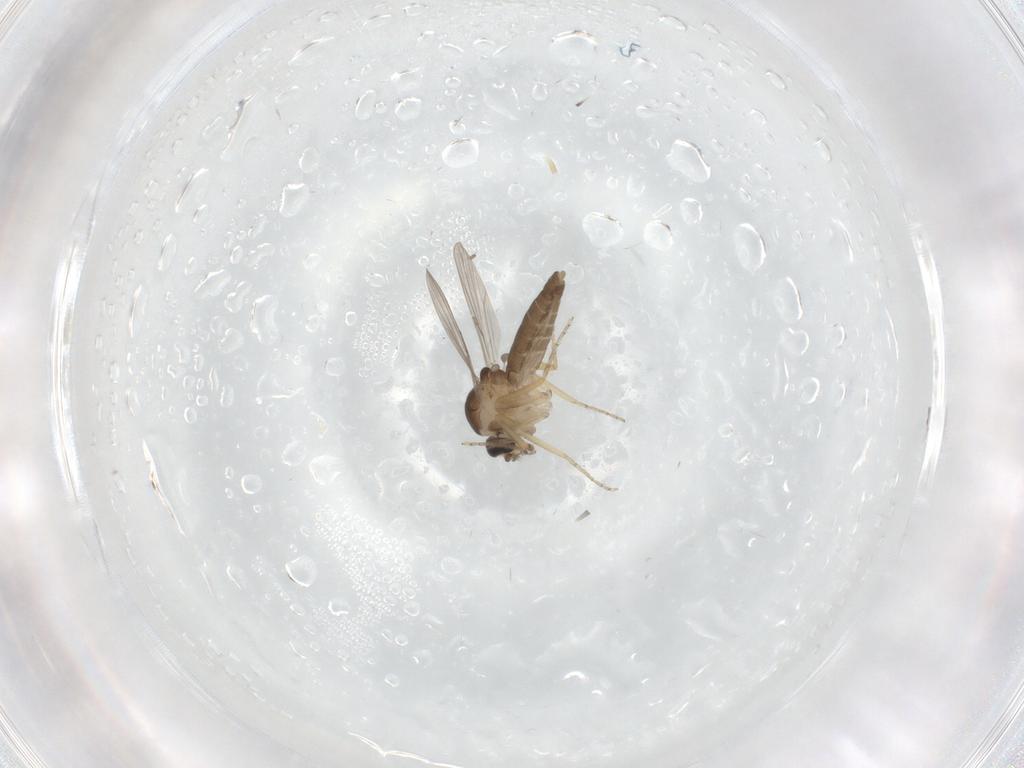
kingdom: Animalia
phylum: Arthropoda
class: Insecta
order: Diptera
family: Ceratopogonidae
